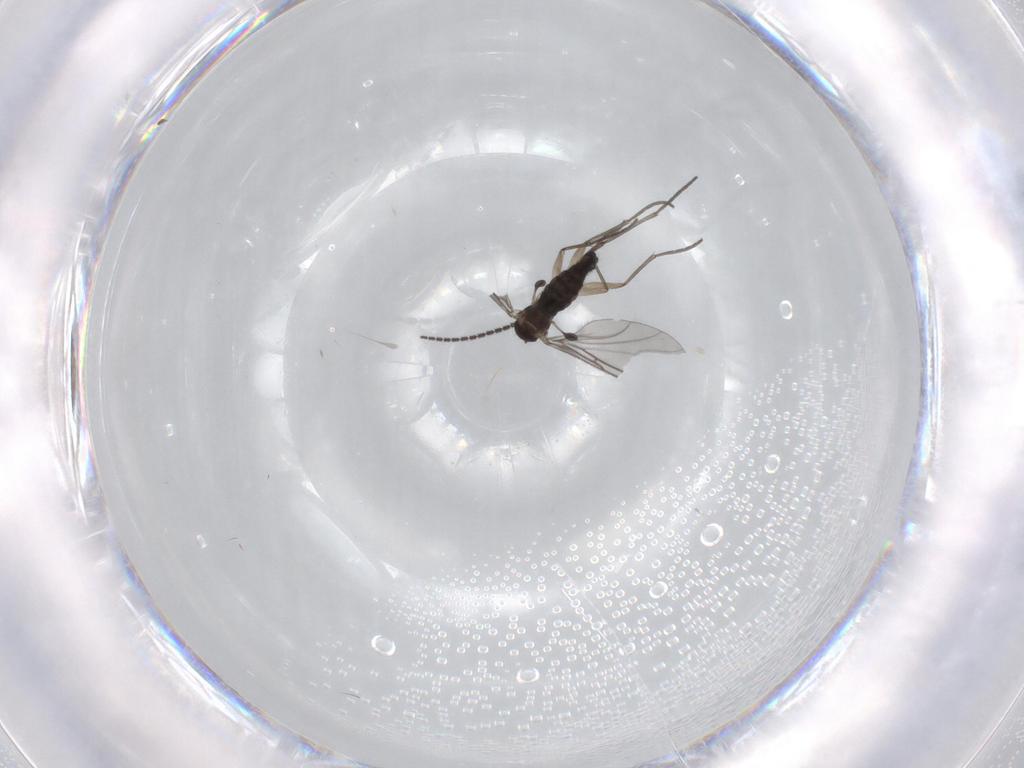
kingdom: Animalia
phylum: Arthropoda
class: Insecta
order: Diptera
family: Sciaridae
